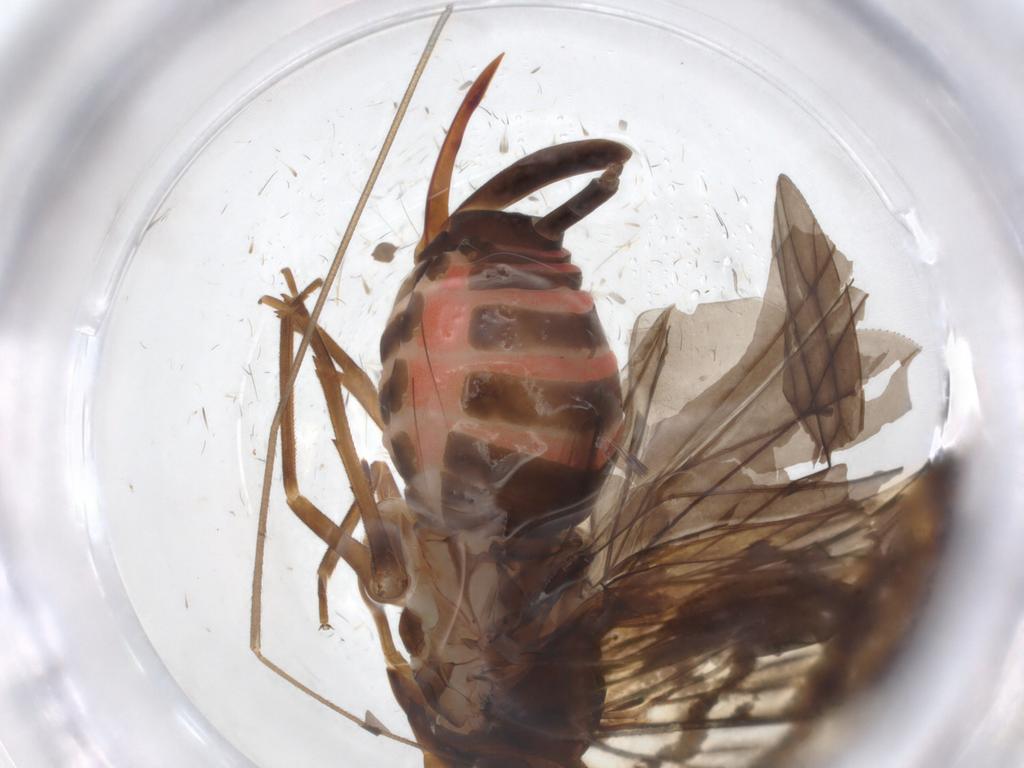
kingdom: Animalia
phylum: Arthropoda
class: Insecta
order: Hemiptera
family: Cixiidae
